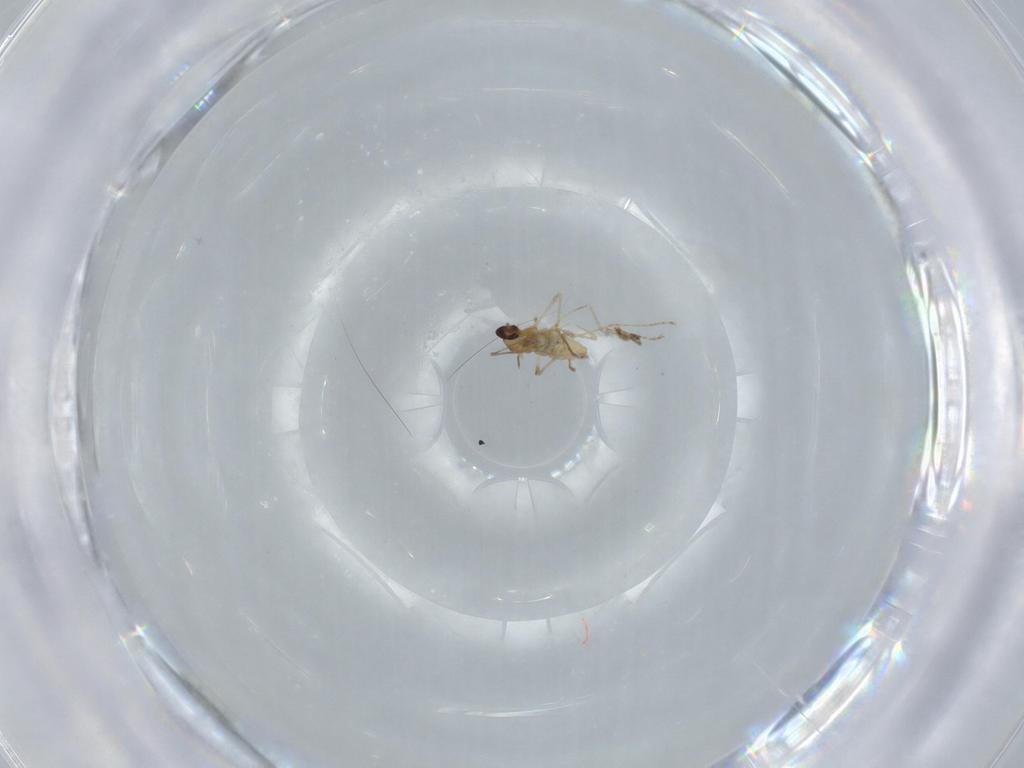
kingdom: Animalia
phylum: Arthropoda
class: Insecta
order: Diptera
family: Cecidomyiidae
